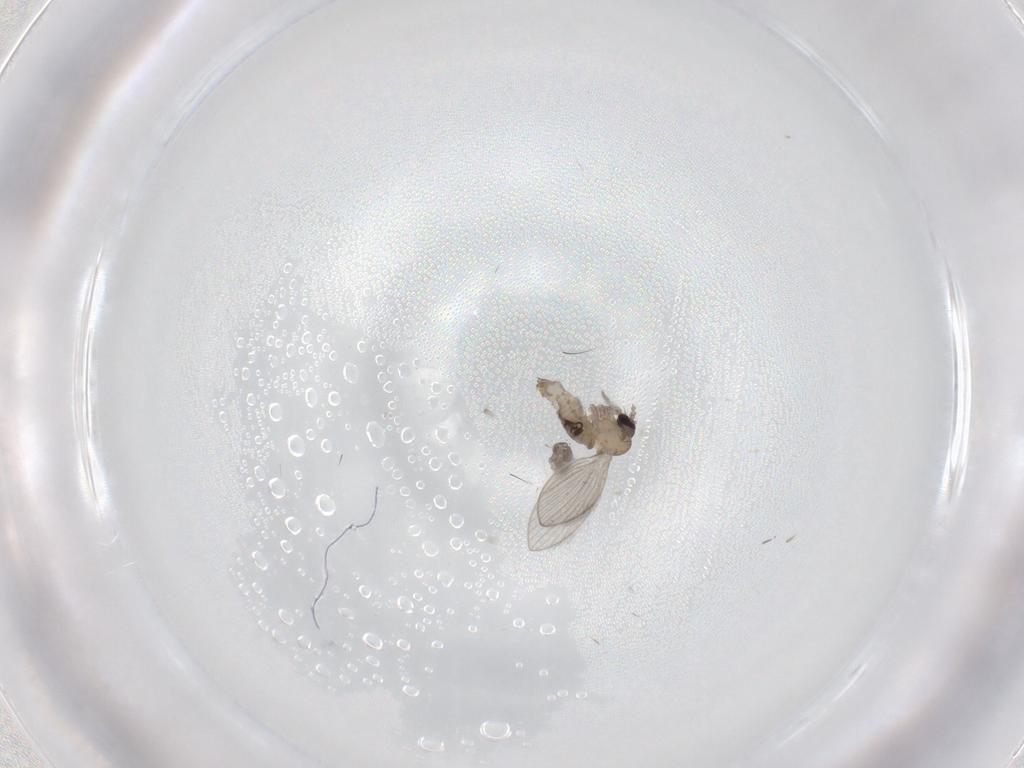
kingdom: Animalia
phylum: Arthropoda
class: Insecta
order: Diptera
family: Psychodidae
